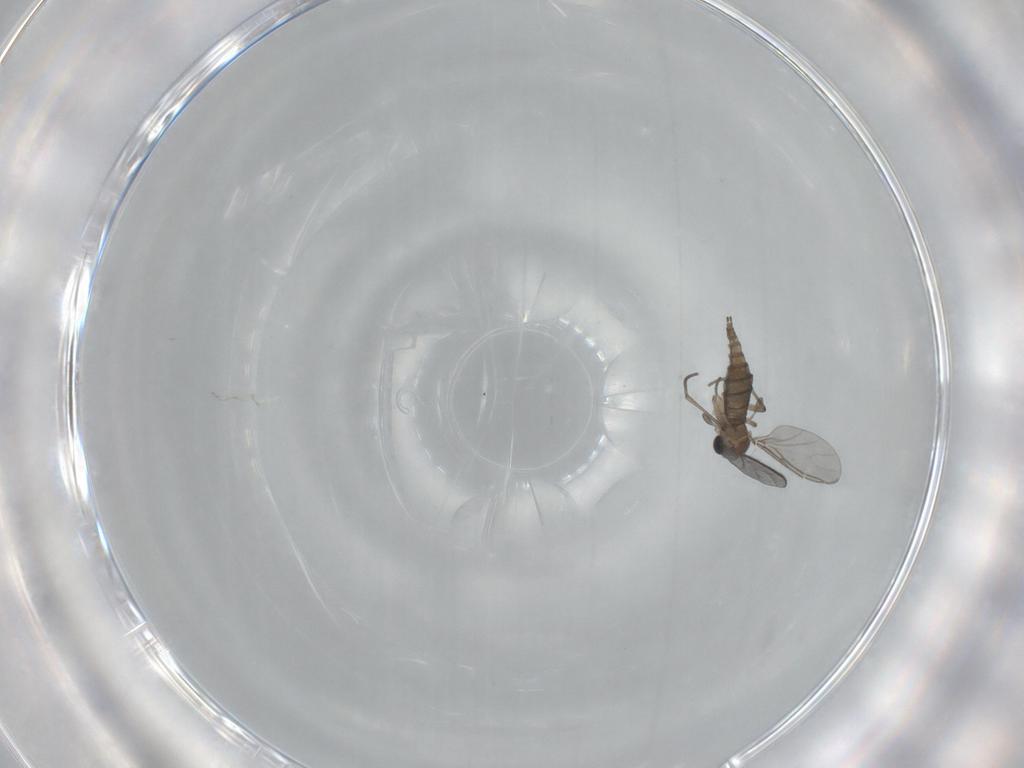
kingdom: Animalia
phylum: Arthropoda
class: Insecta
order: Diptera
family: Sciaridae
